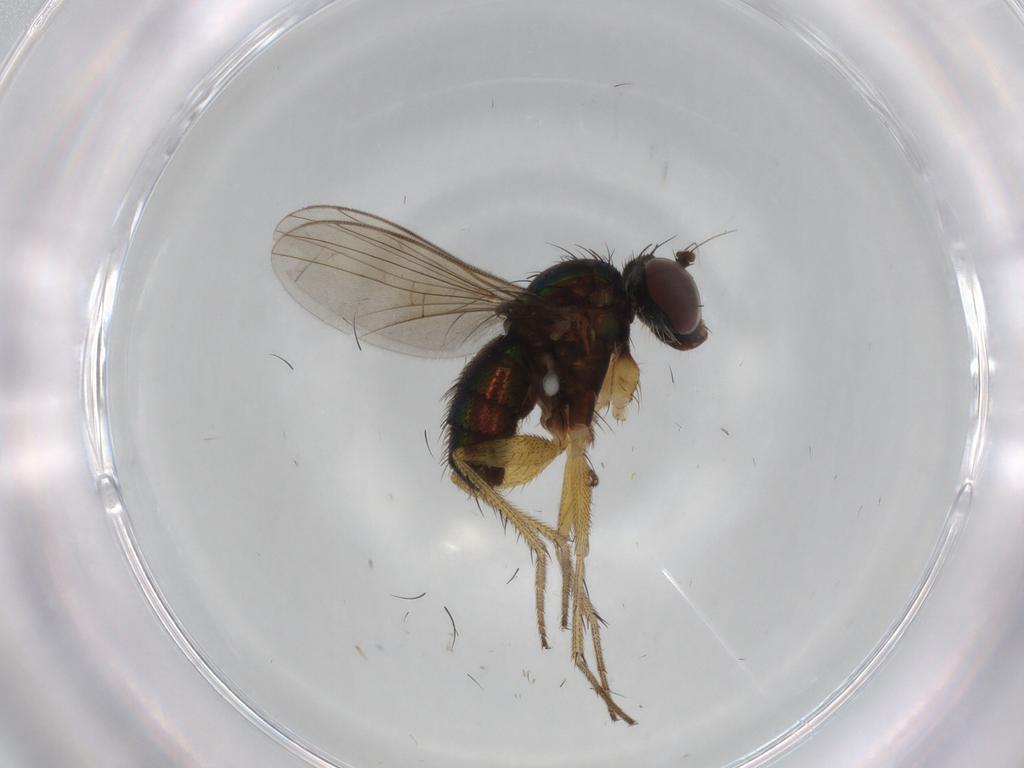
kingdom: Animalia
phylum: Arthropoda
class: Insecta
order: Diptera
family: Dolichopodidae
